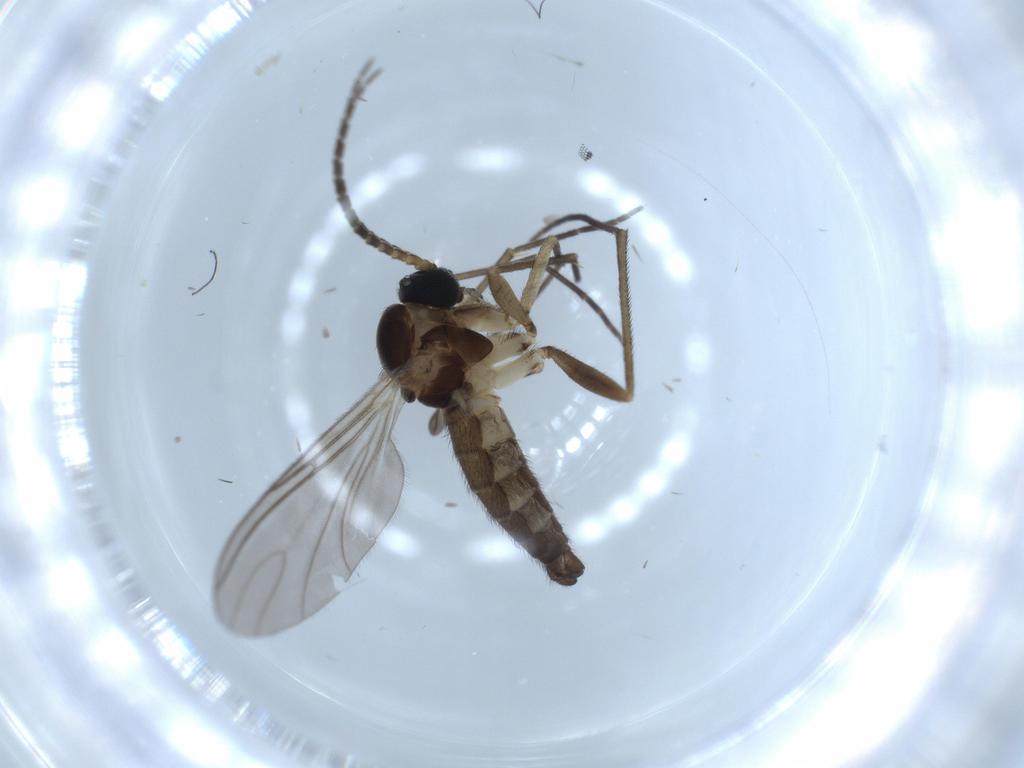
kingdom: Animalia
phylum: Arthropoda
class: Insecta
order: Diptera
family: Sciaridae
